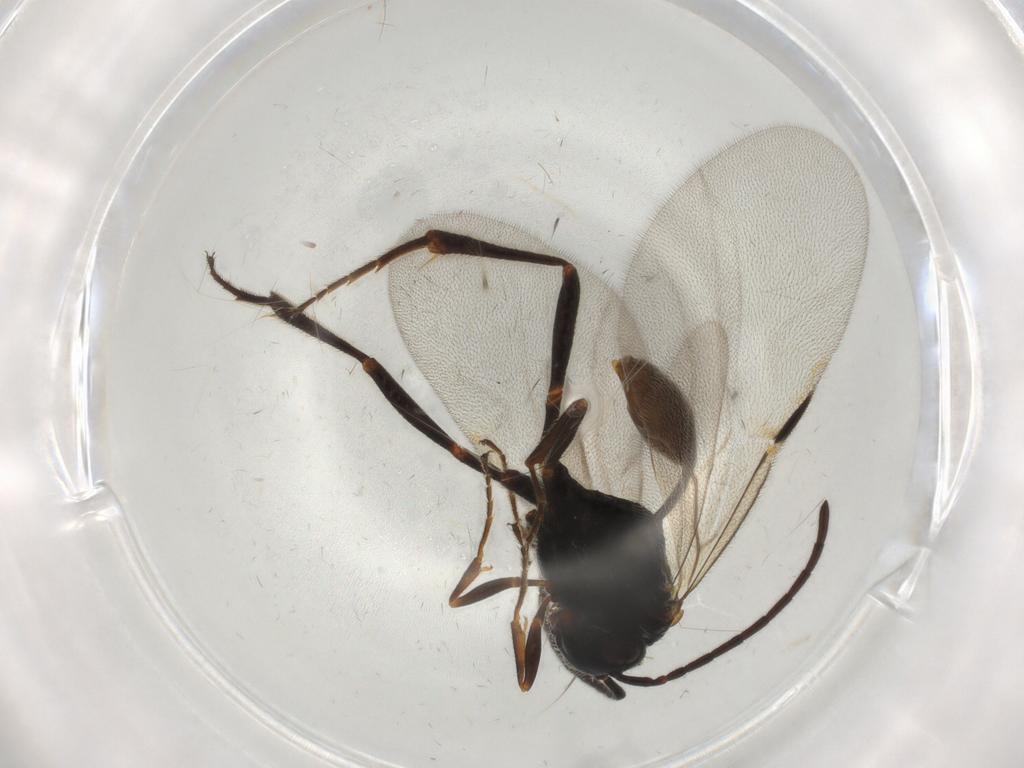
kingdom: Animalia
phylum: Arthropoda
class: Insecta
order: Hymenoptera
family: Evaniidae
